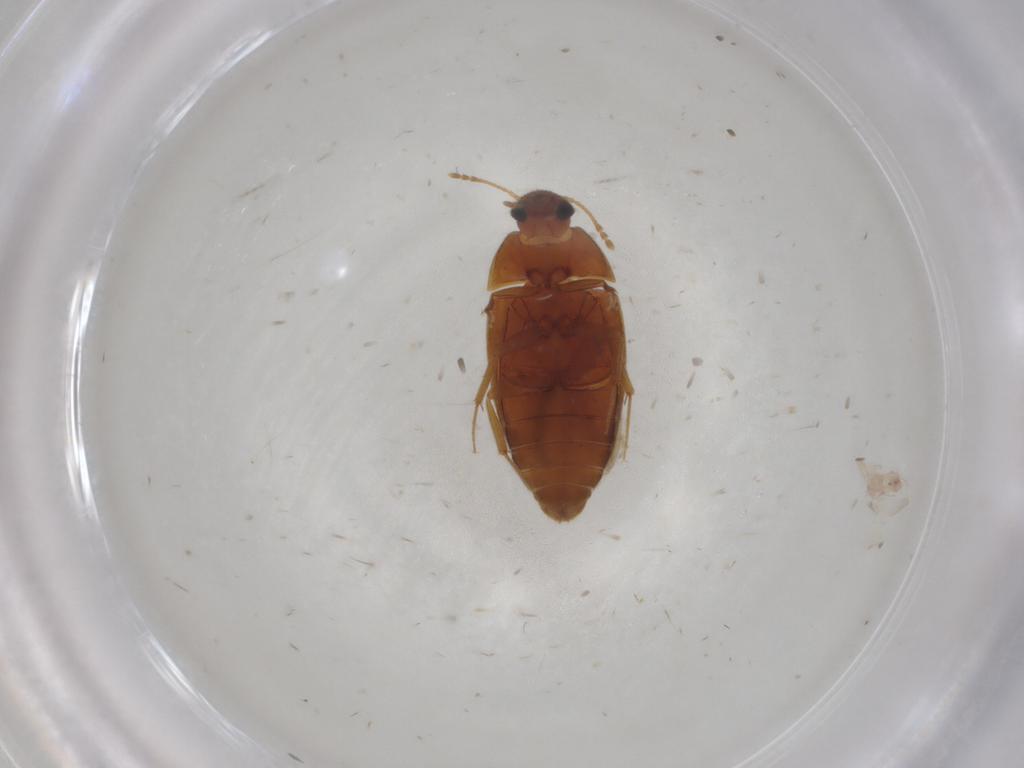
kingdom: Animalia
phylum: Arthropoda
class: Insecta
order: Coleoptera
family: Mycetophagidae
